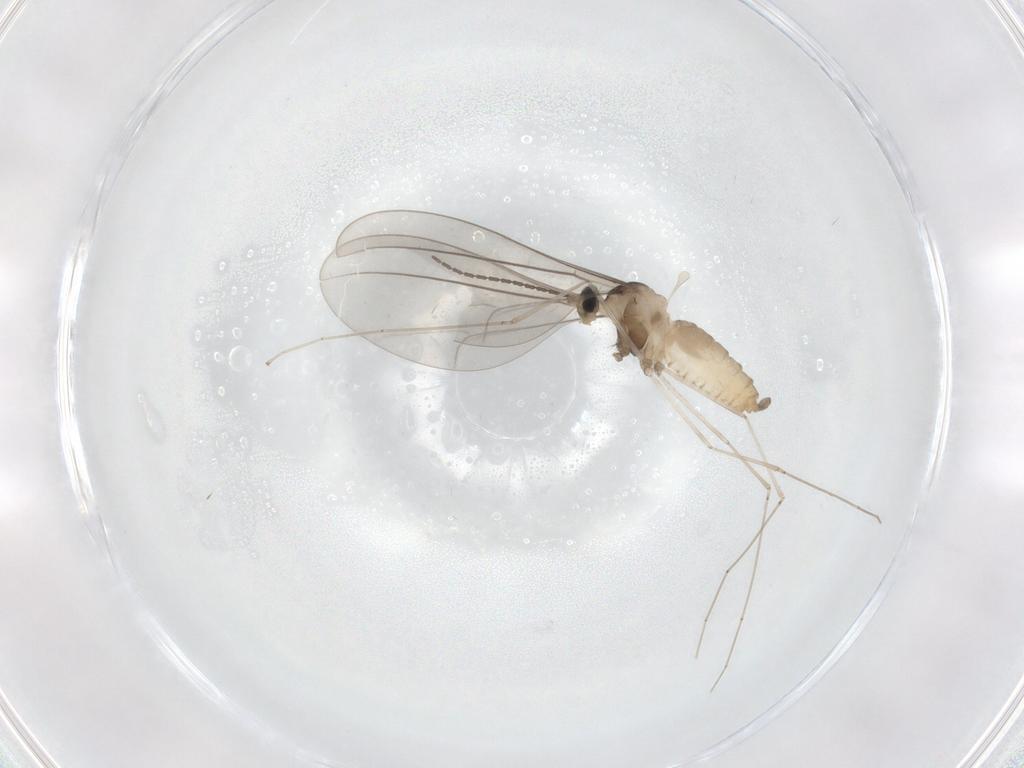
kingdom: Animalia
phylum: Arthropoda
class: Insecta
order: Diptera
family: Cecidomyiidae
